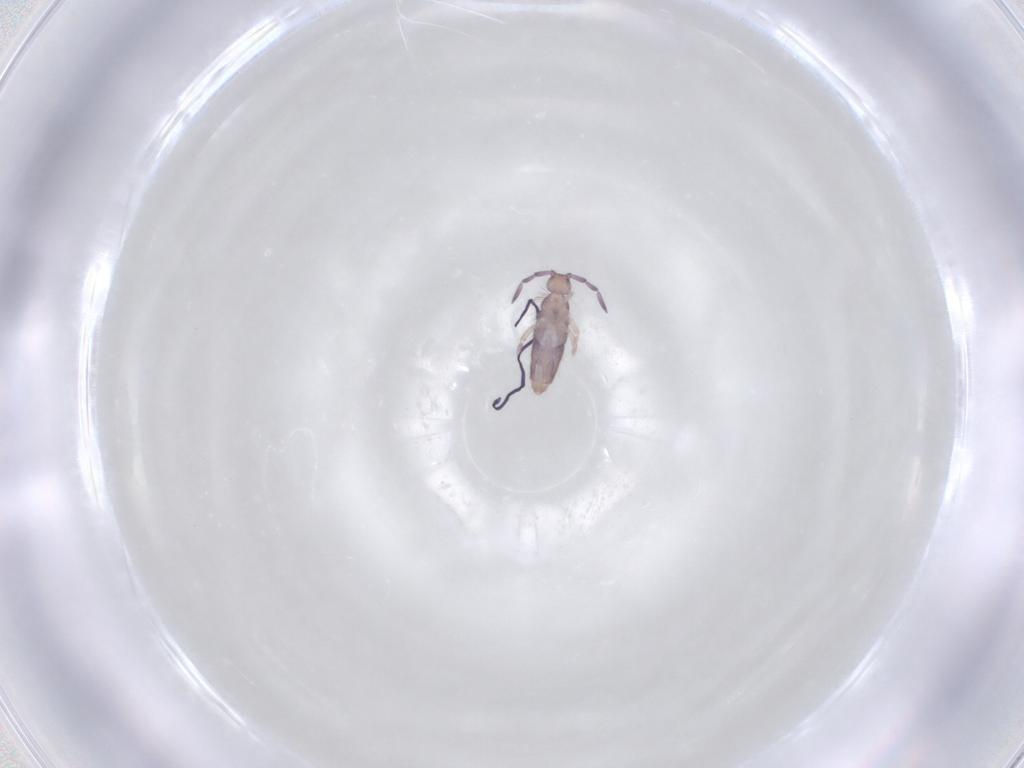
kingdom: Animalia
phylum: Arthropoda
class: Collembola
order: Entomobryomorpha
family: Entomobryidae
